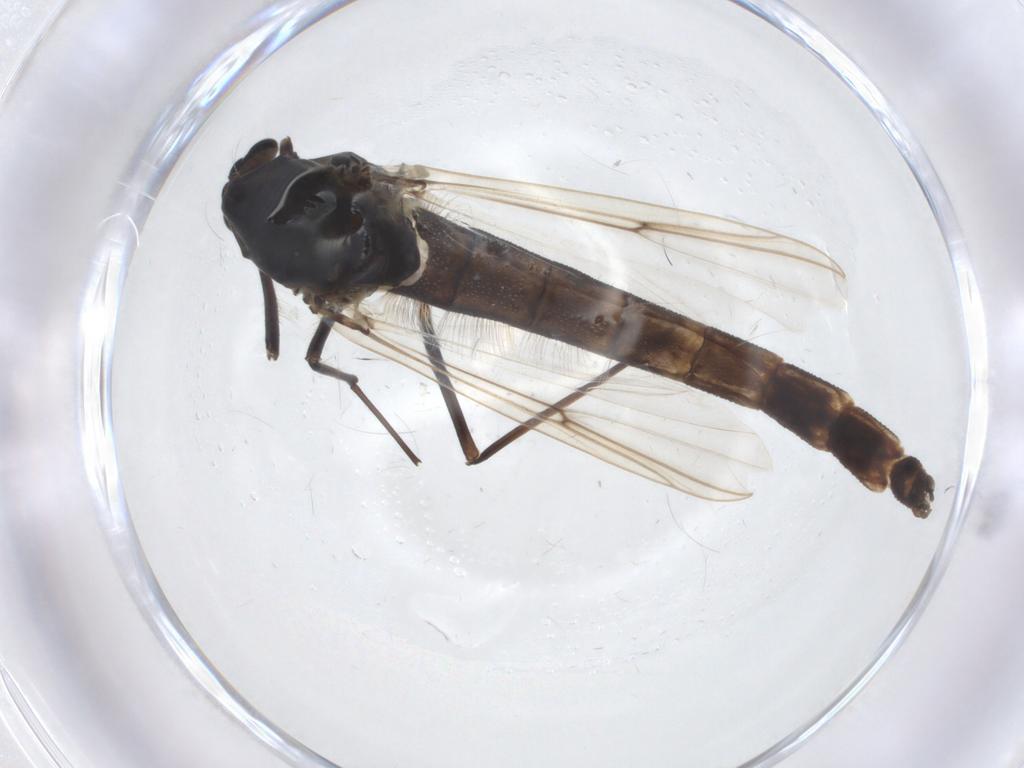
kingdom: Animalia
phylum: Arthropoda
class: Insecta
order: Diptera
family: Chironomidae
